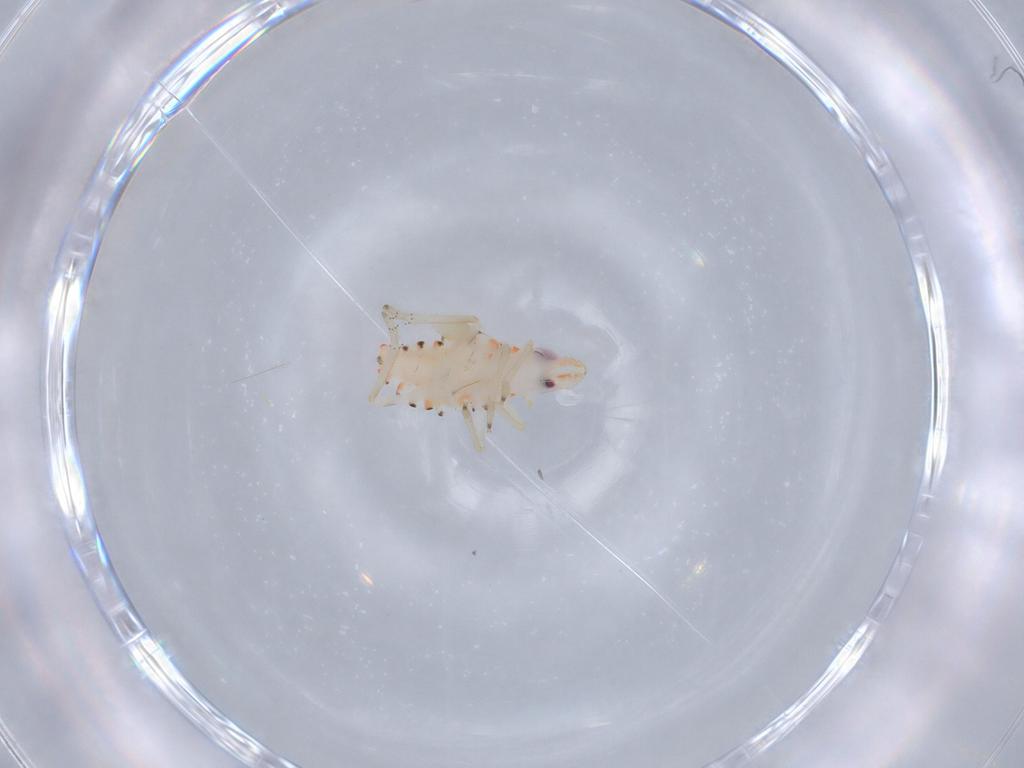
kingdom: Animalia
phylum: Arthropoda
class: Insecta
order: Hemiptera
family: Tropiduchidae
